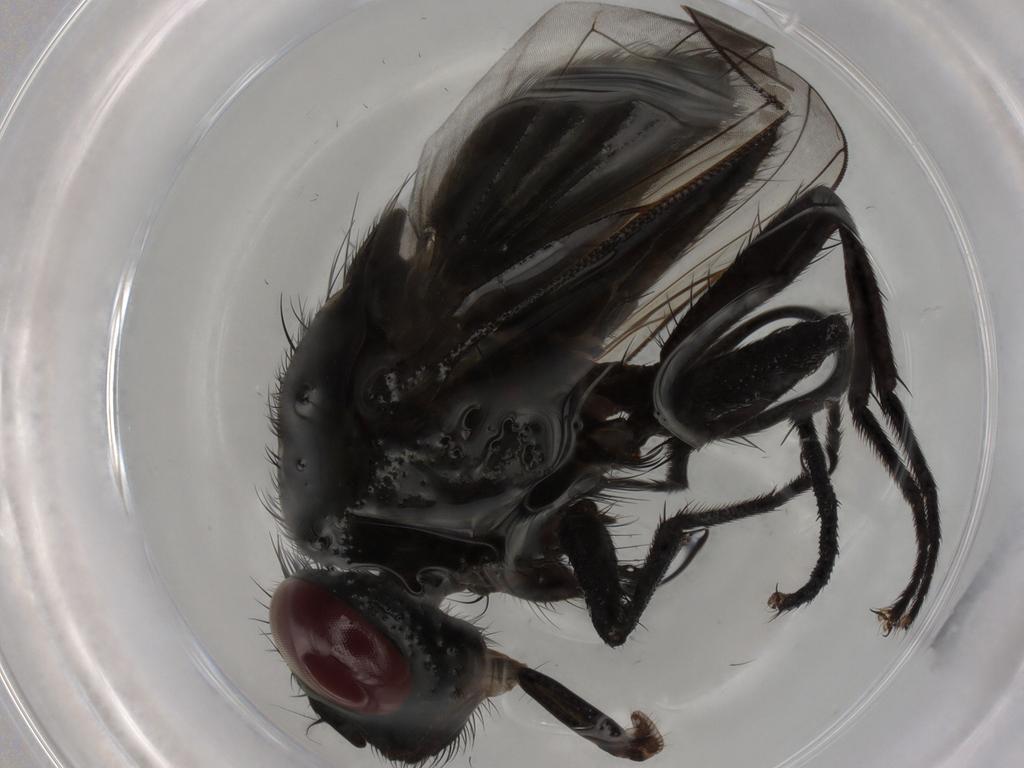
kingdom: Animalia
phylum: Arthropoda
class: Insecta
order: Diptera
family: Muscidae
